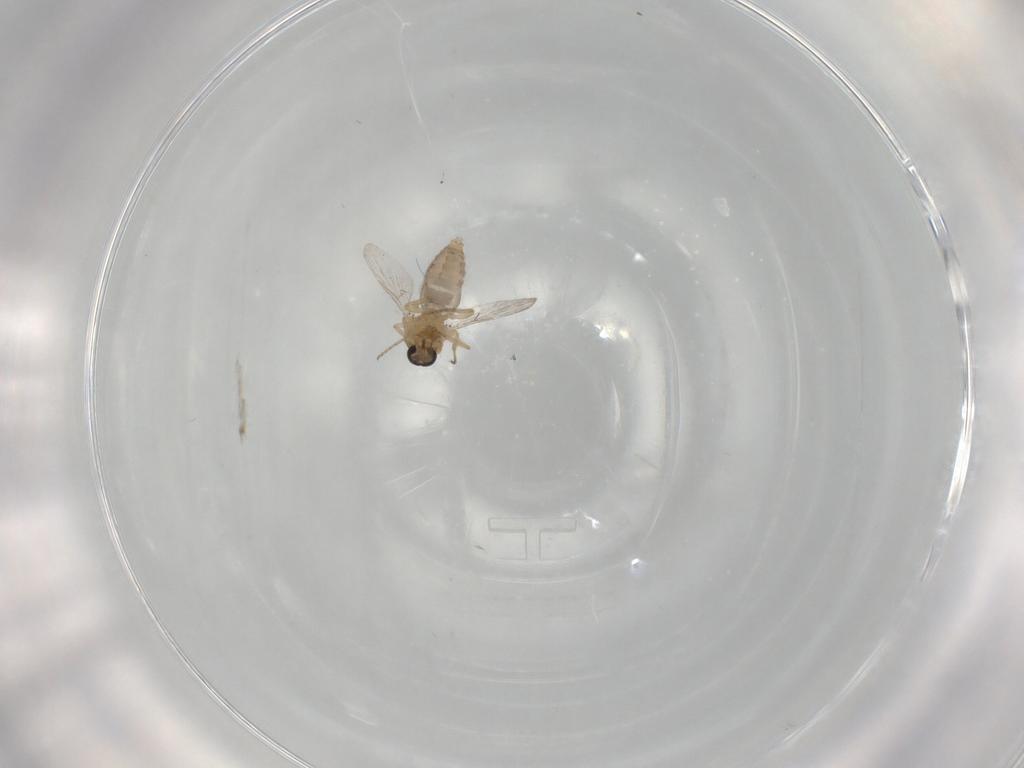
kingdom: Animalia
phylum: Arthropoda
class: Insecta
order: Diptera
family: Ceratopogonidae
